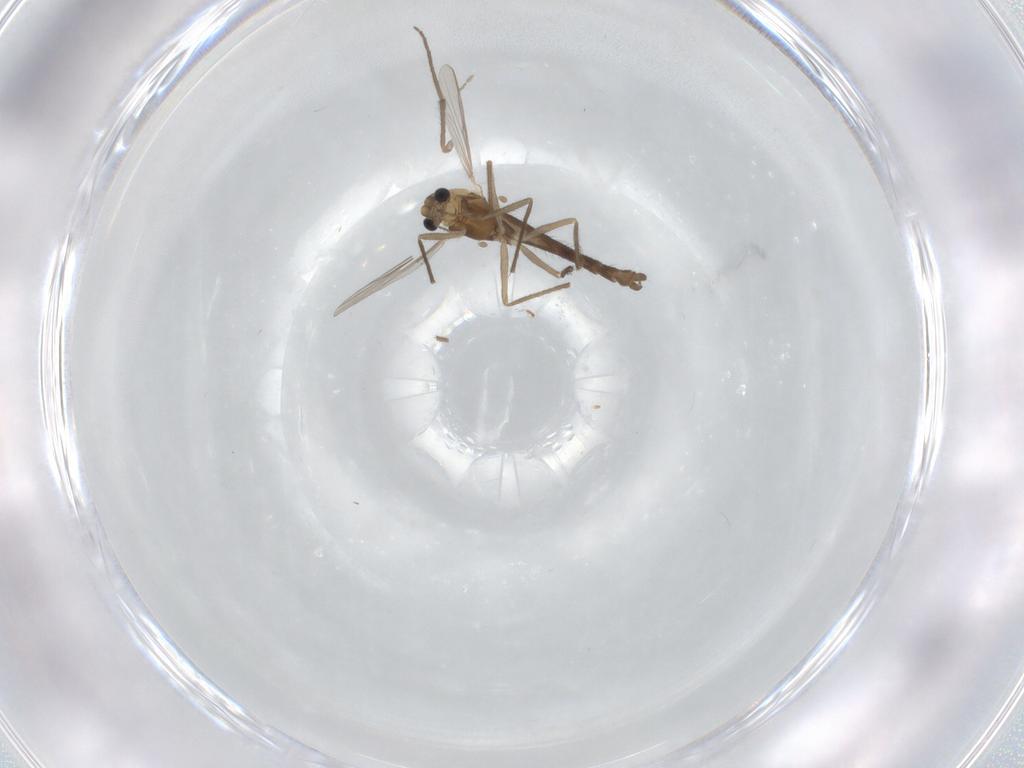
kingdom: Animalia
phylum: Arthropoda
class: Insecta
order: Diptera
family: Chironomidae
